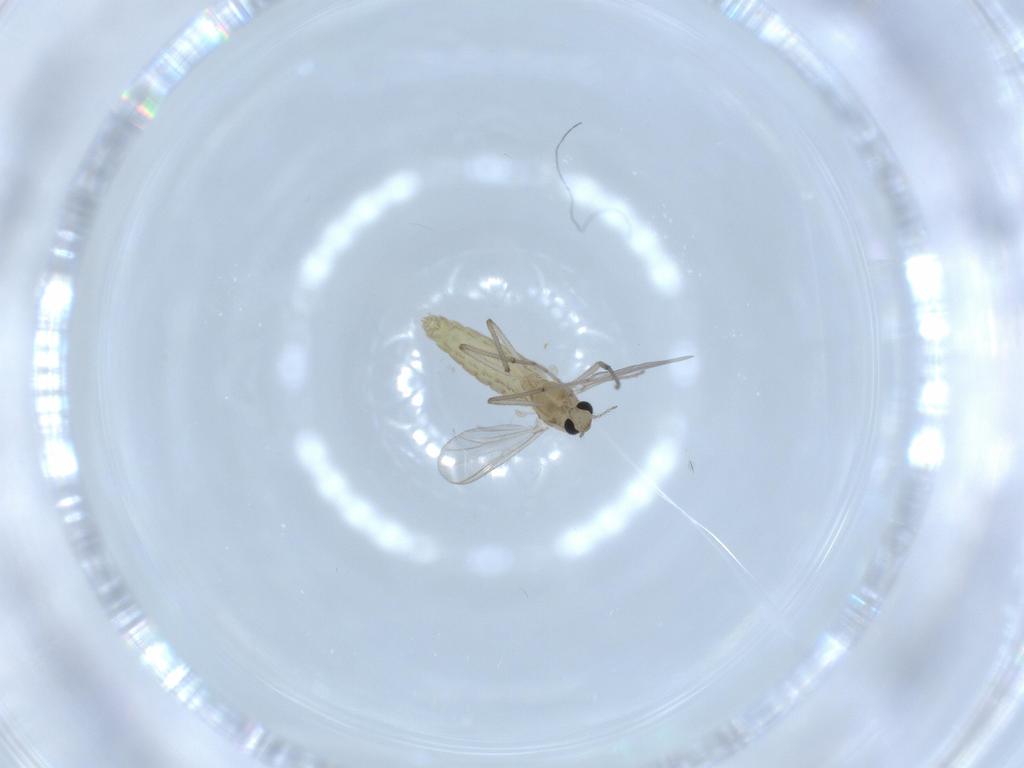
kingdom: Animalia
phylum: Arthropoda
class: Insecta
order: Diptera
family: Chironomidae
